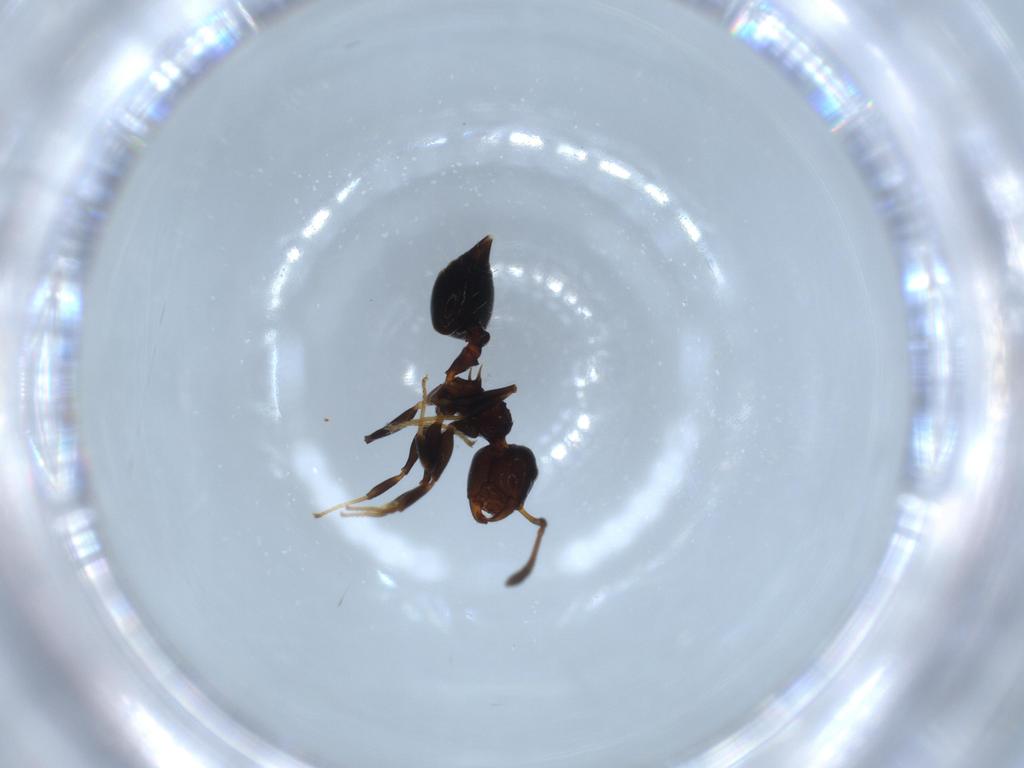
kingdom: Animalia
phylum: Arthropoda
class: Insecta
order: Hymenoptera
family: Formicidae
